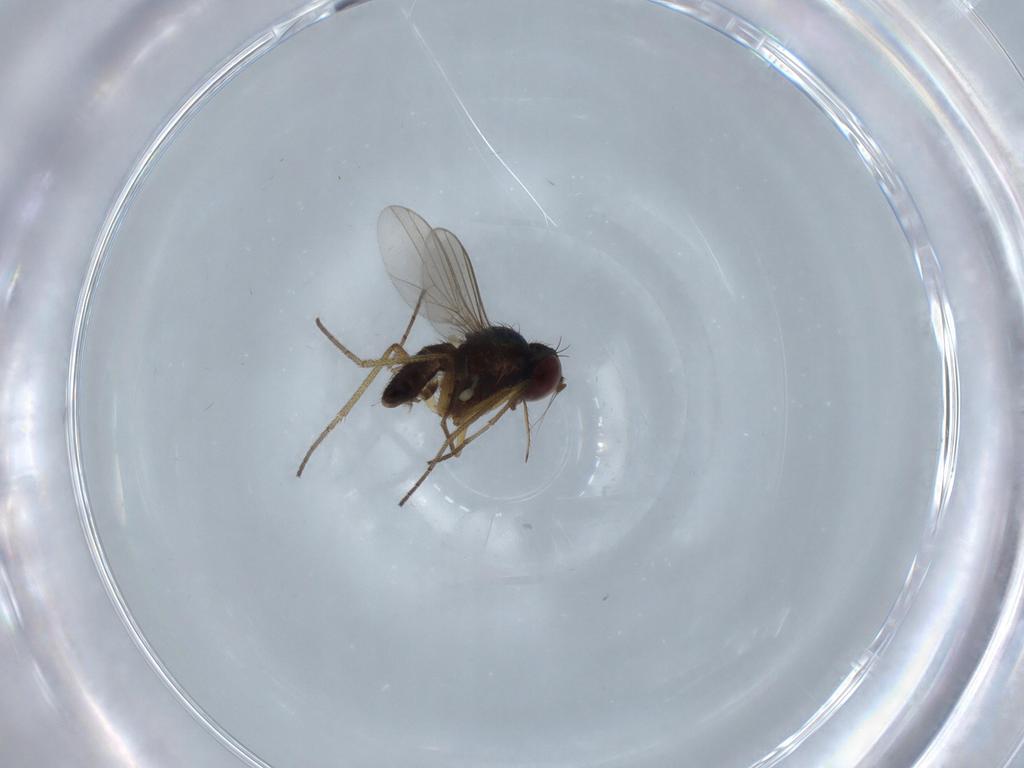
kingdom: Animalia
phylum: Arthropoda
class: Insecta
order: Diptera
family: Dolichopodidae
